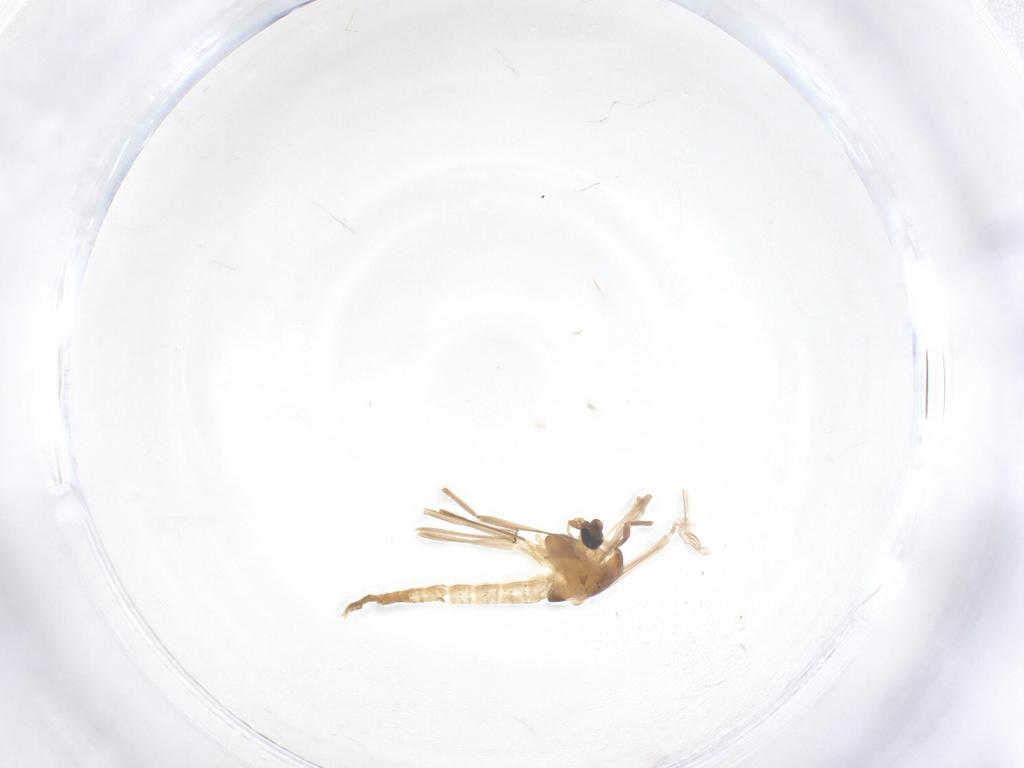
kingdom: Animalia
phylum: Arthropoda
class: Insecta
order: Diptera
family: Chironomidae
